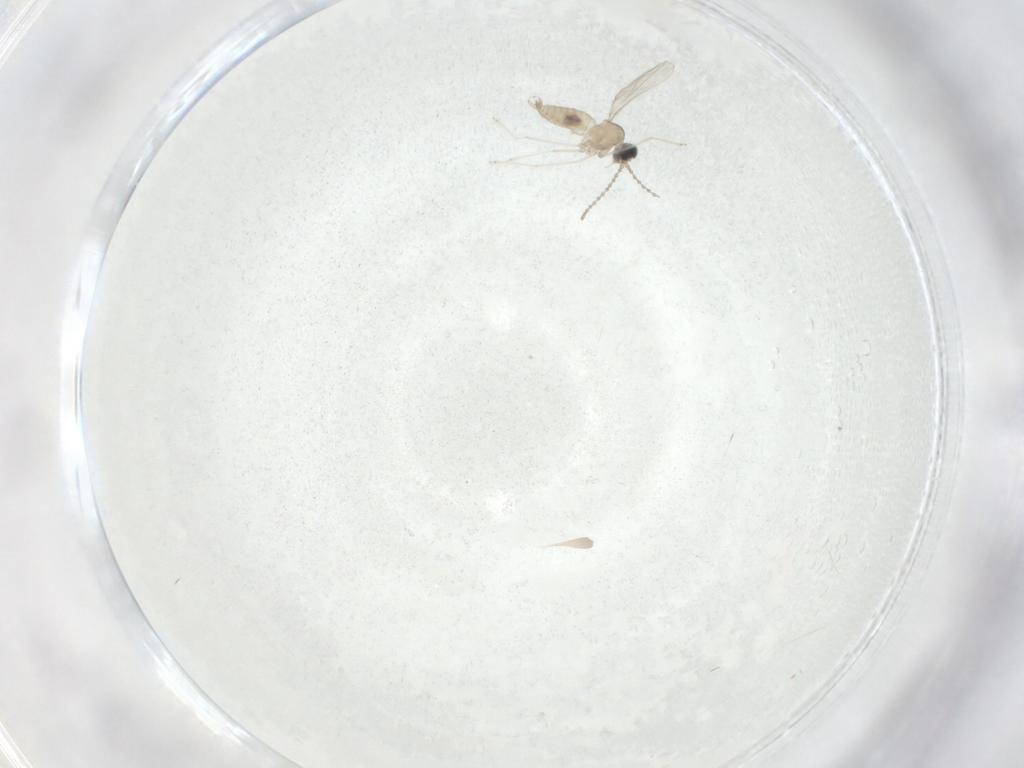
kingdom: Animalia
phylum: Arthropoda
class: Insecta
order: Diptera
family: Cecidomyiidae
